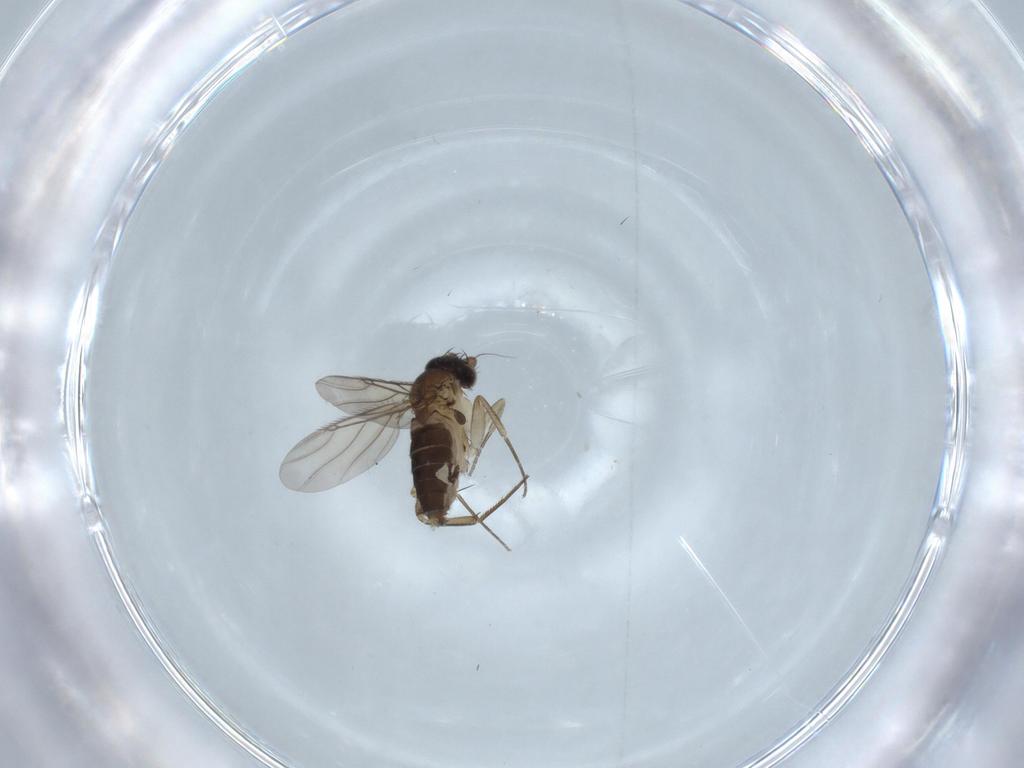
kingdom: Animalia
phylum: Arthropoda
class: Insecta
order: Diptera
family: Phoridae
